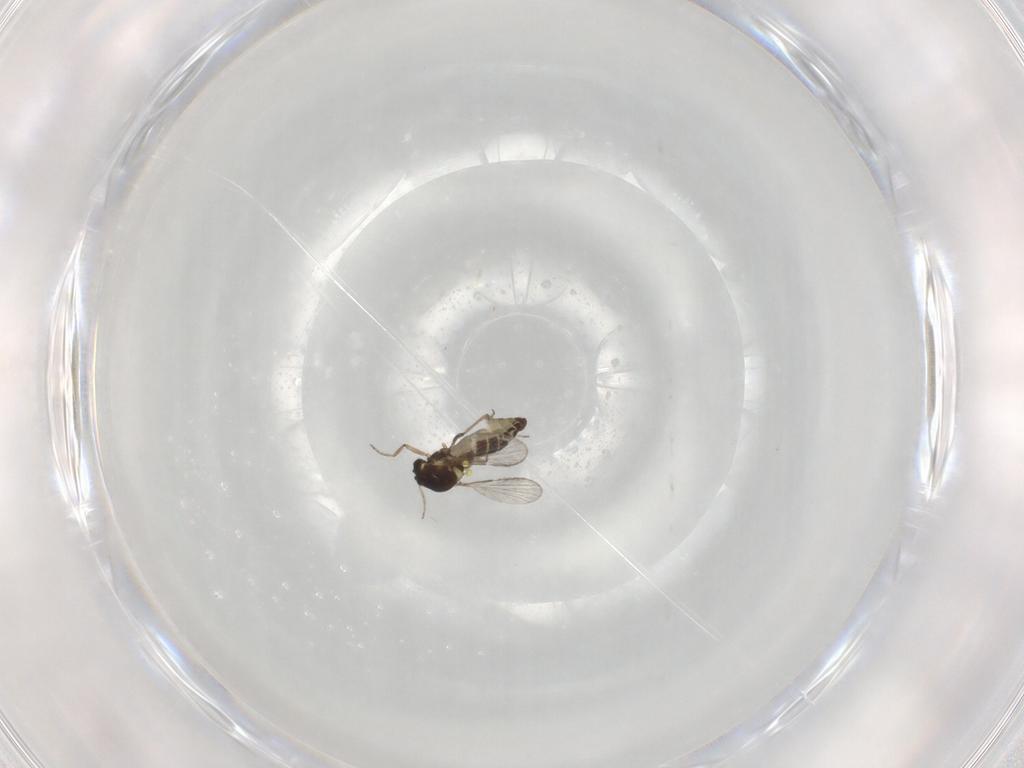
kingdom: Animalia
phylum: Arthropoda
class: Insecta
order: Diptera
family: Ceratopogonidae
